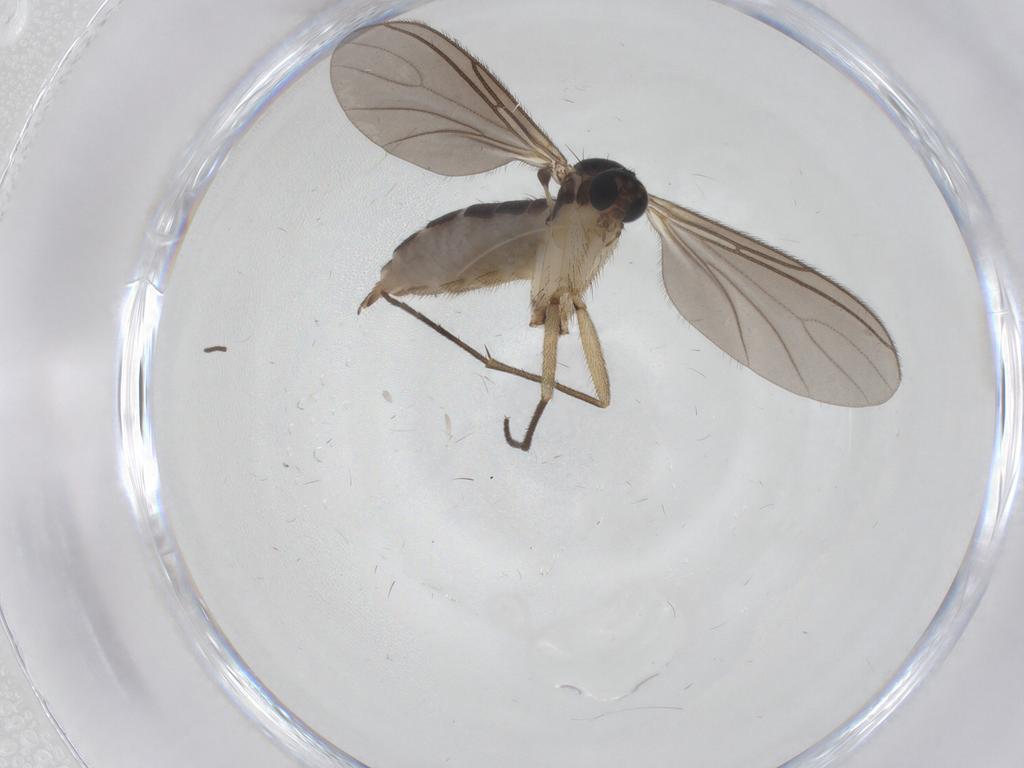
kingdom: Animalia
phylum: Arthropoda
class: Insecta
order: Diptera
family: Sciaridae
